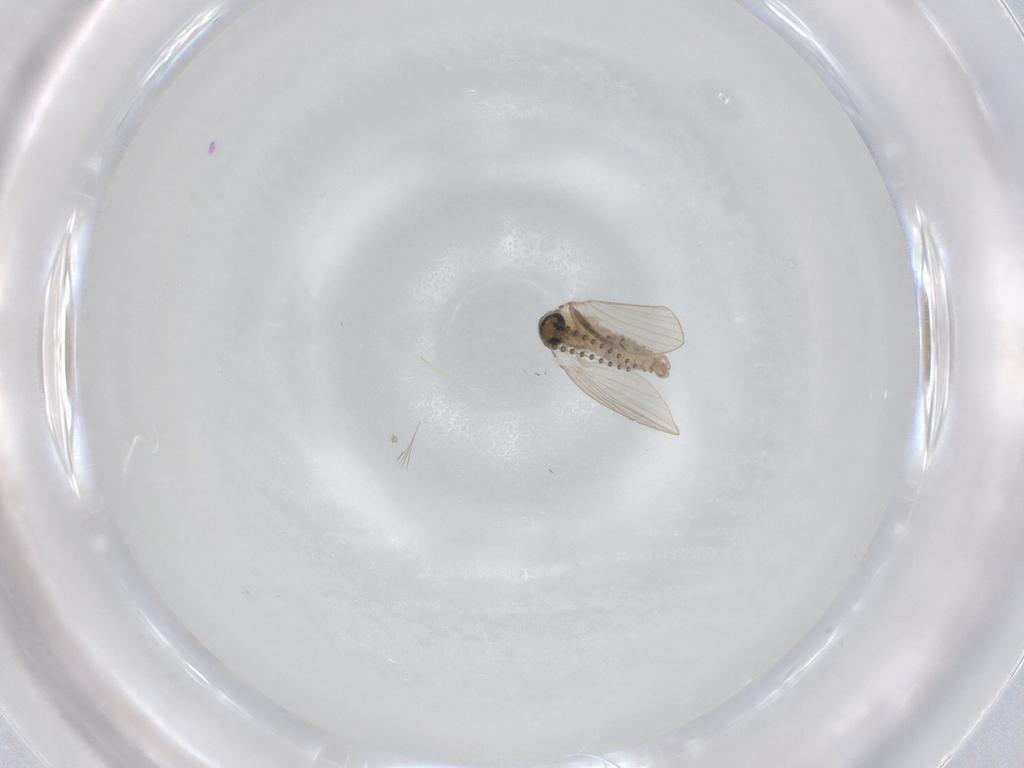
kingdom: Animalia
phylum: Arthropoda
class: Insecta
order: Diptera
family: Psychodidae
